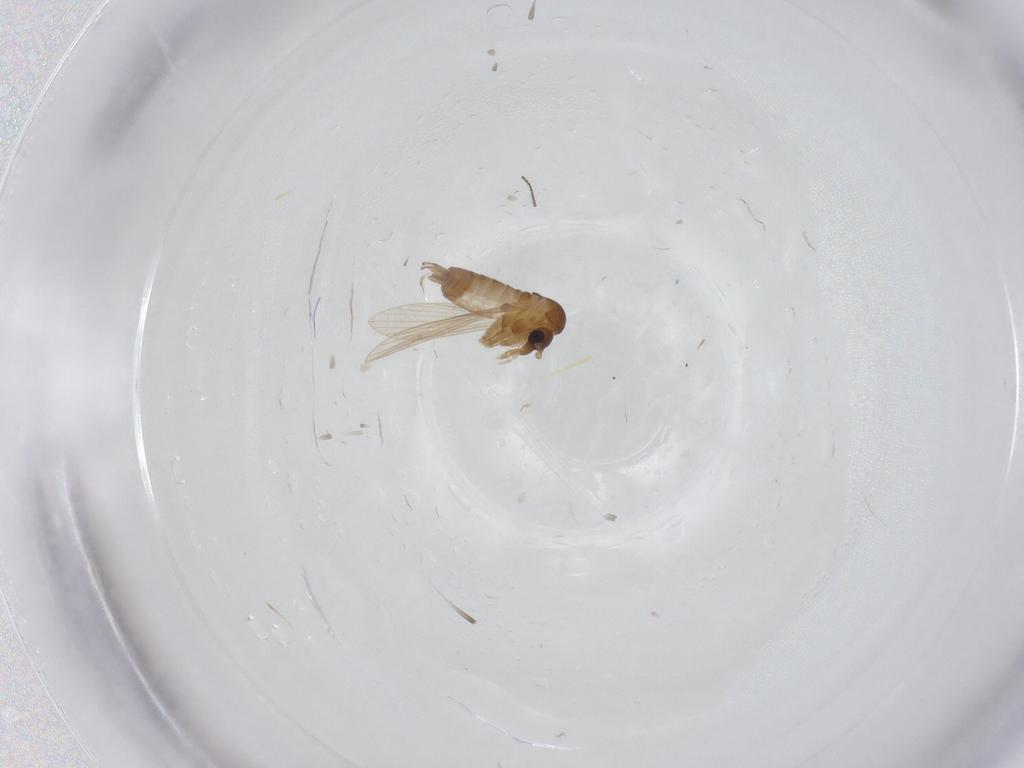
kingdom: Animalia
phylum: Arthropoda
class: Insecta
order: Diptera
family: Psychodidae
